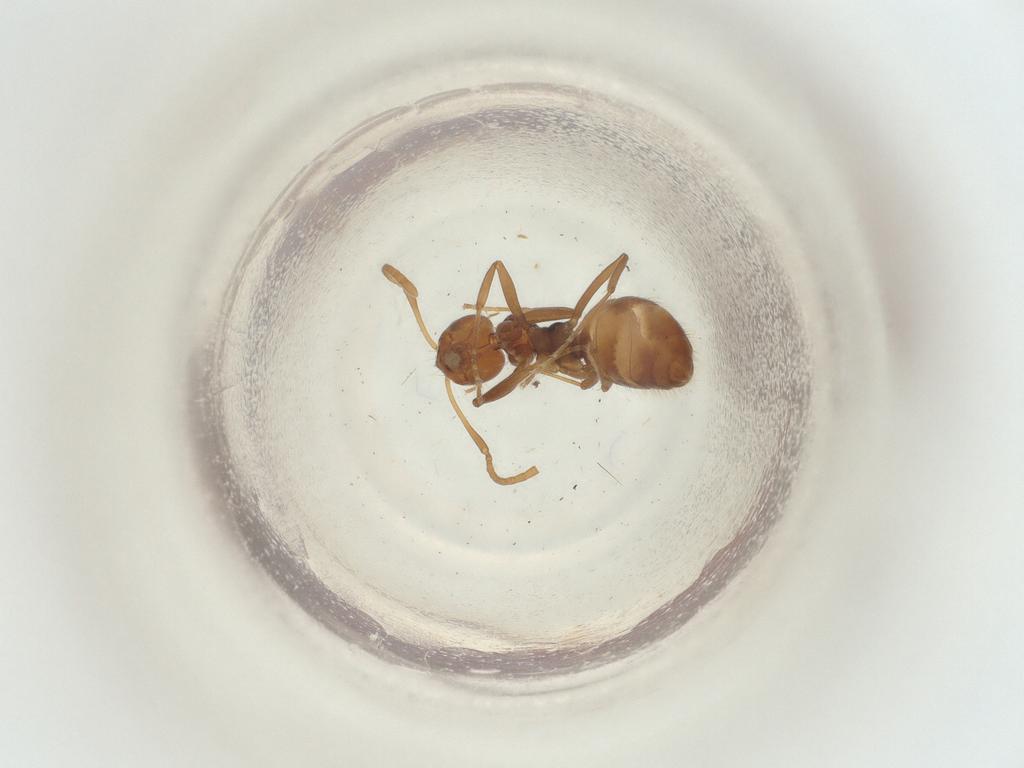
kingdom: Animalia
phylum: Arthropoda
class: Insecta
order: Hymenoptera
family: Formicidae
